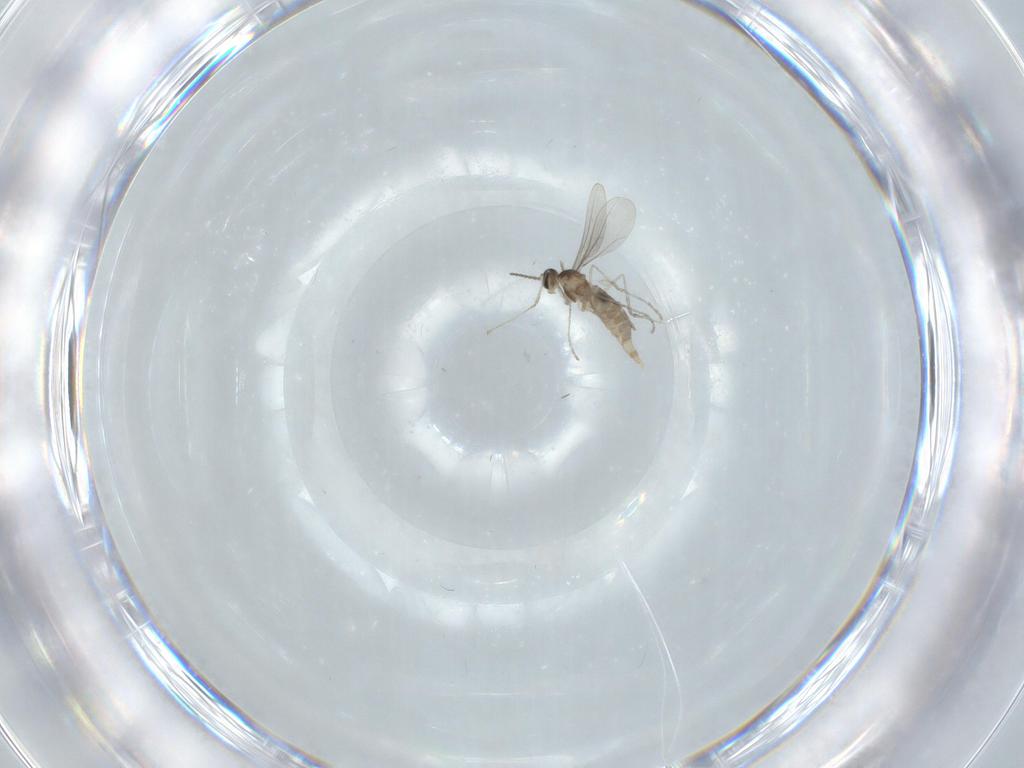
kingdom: Animalia
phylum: Arthropoda
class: Insecta
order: Diptera
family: Cecidomyiidae
